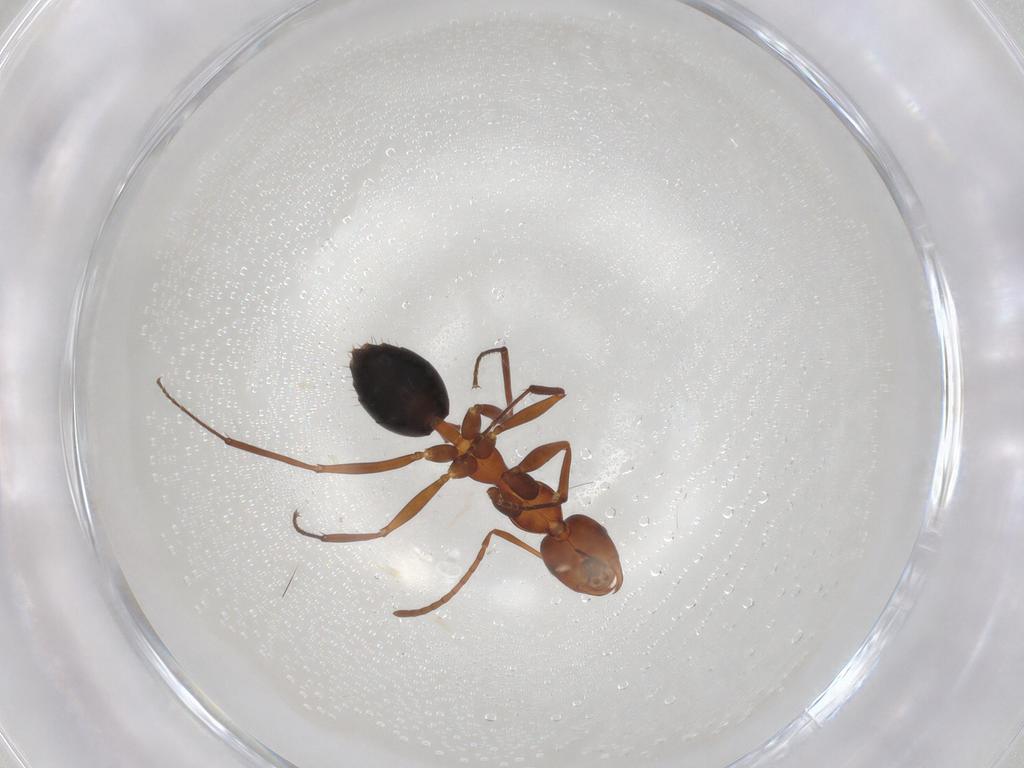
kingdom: Animalia
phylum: Arthropoda
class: Insecta
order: Hymenoptera
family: Formicidae
